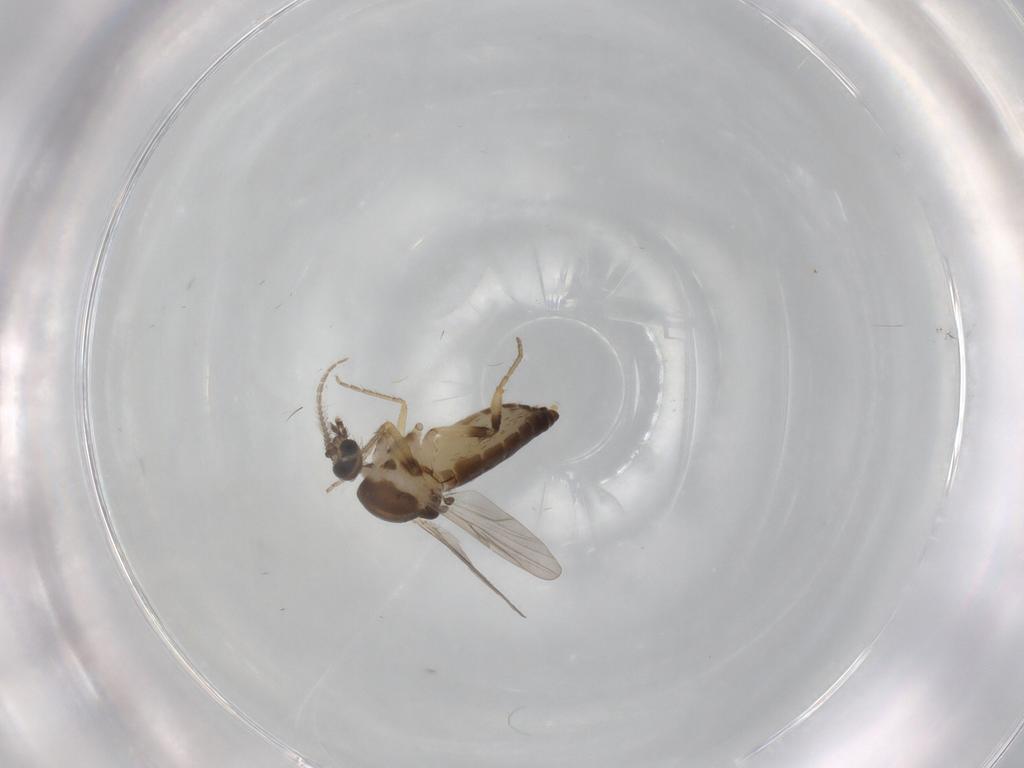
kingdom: Animalia
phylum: Arthropoda
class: Insecta
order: Diptera
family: Ceratopogonidae
